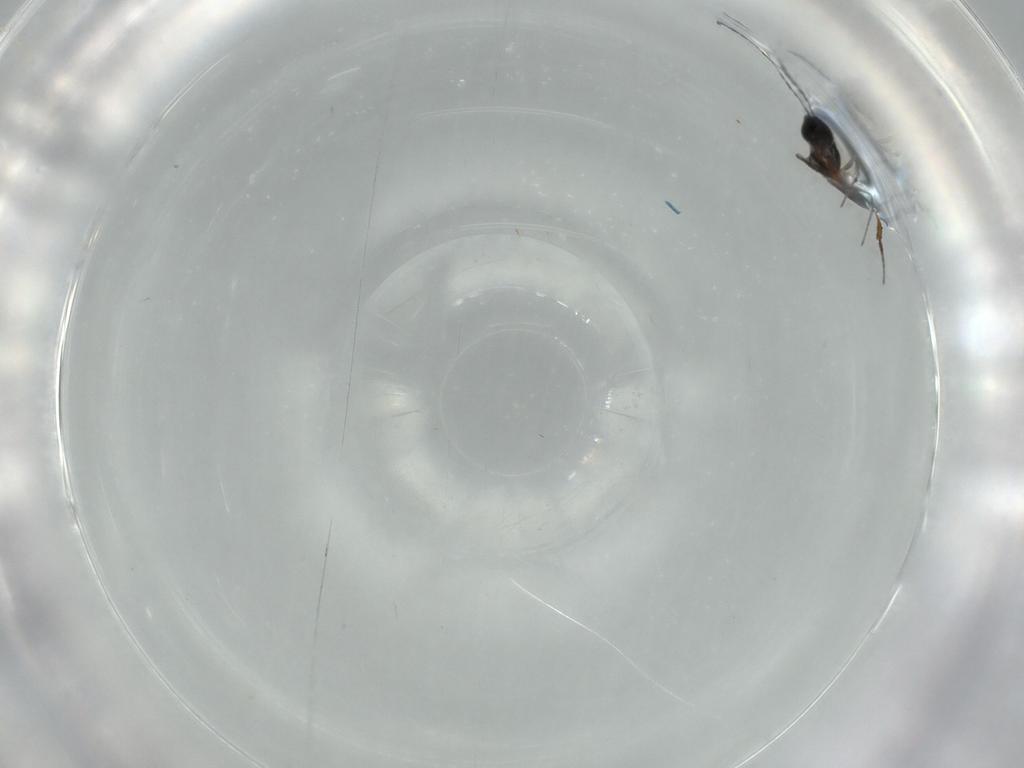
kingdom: Animalia
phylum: Arthropoda
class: Insecta
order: Hymenoptera
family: Figitidae
